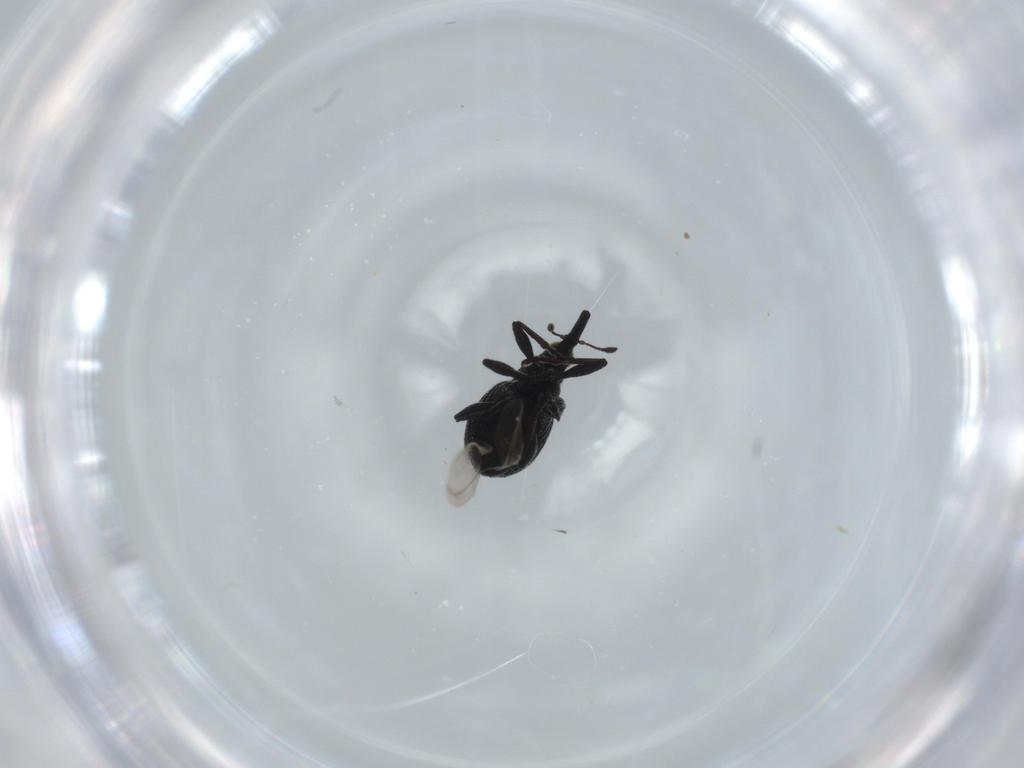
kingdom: Animalia
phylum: Arthropoda
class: Insecta
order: Coleoptera
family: Brentidae
